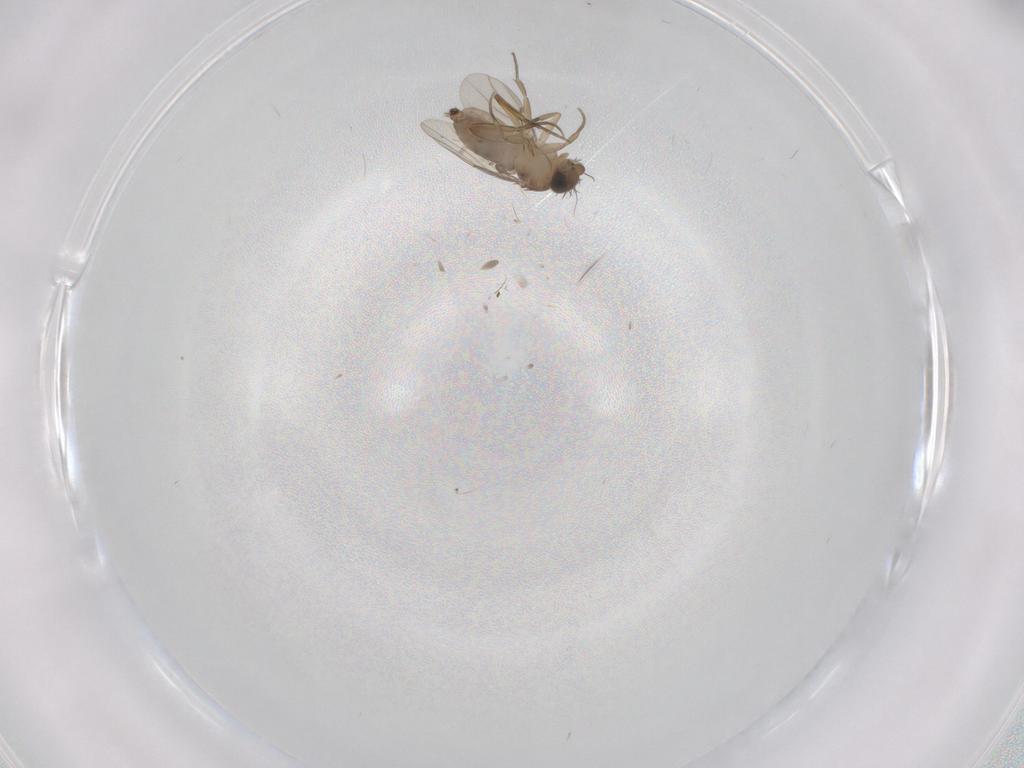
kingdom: Animalia
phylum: Arthropoda
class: Insecta
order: Diptera
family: Phoridae
